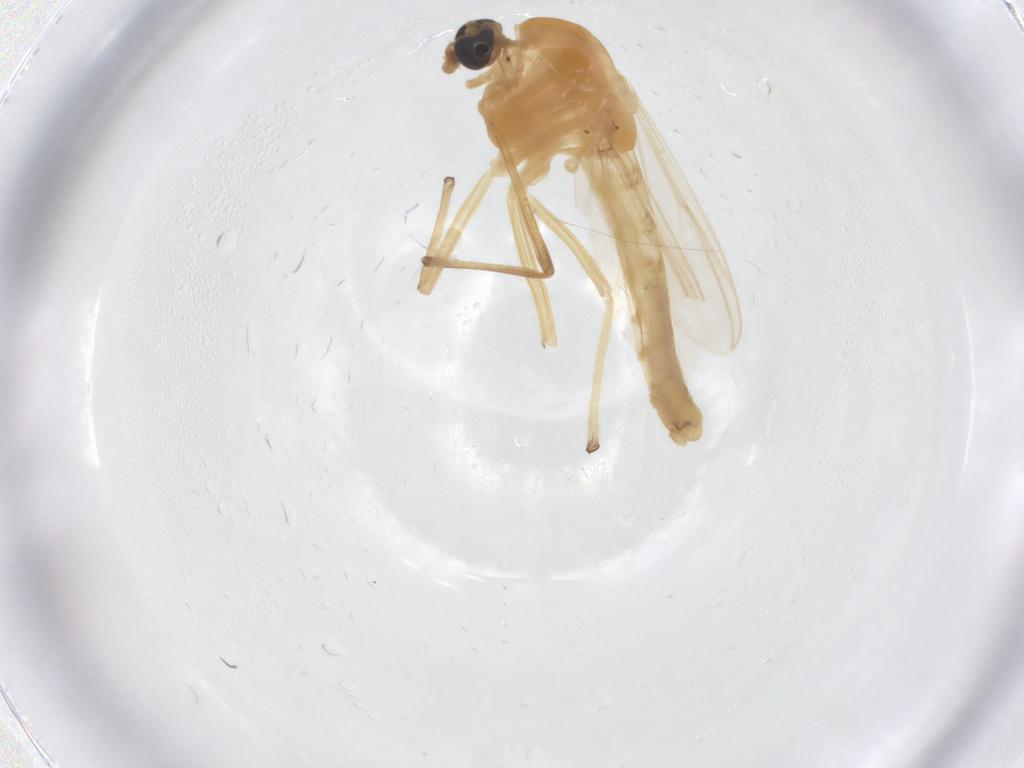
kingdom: Animalia
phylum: Arthropoda
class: Insecta
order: Diptera
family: Chironomidae
